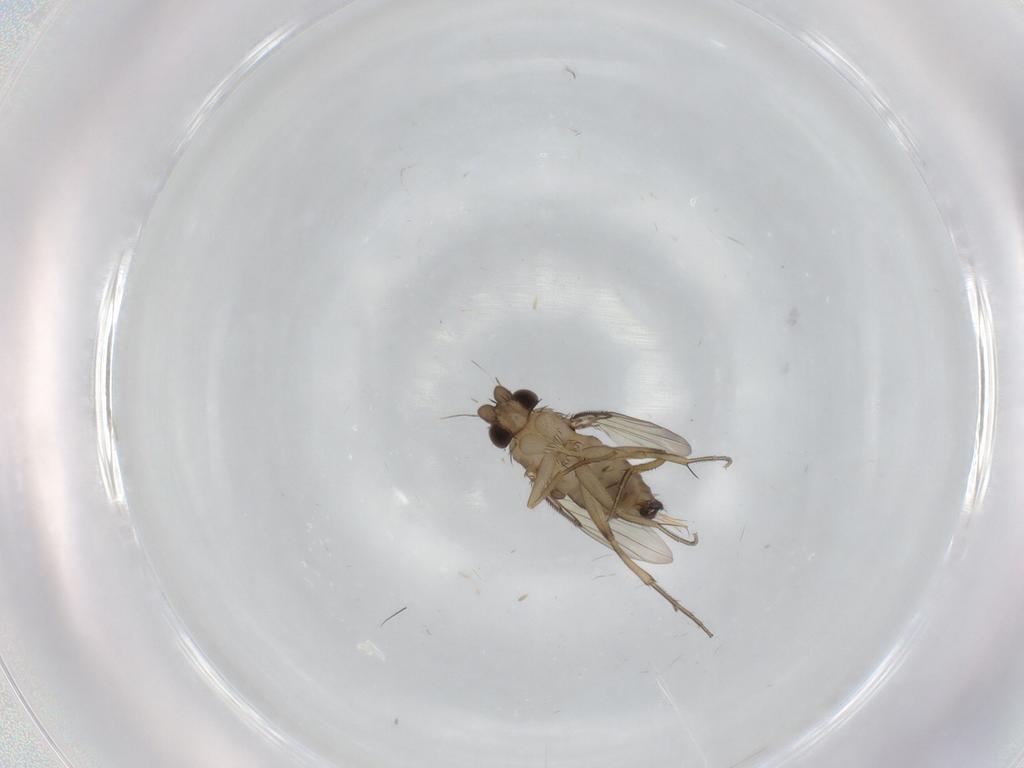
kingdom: Animalia
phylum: Arthropoda
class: Insecta
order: Diptera
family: Phoridae
